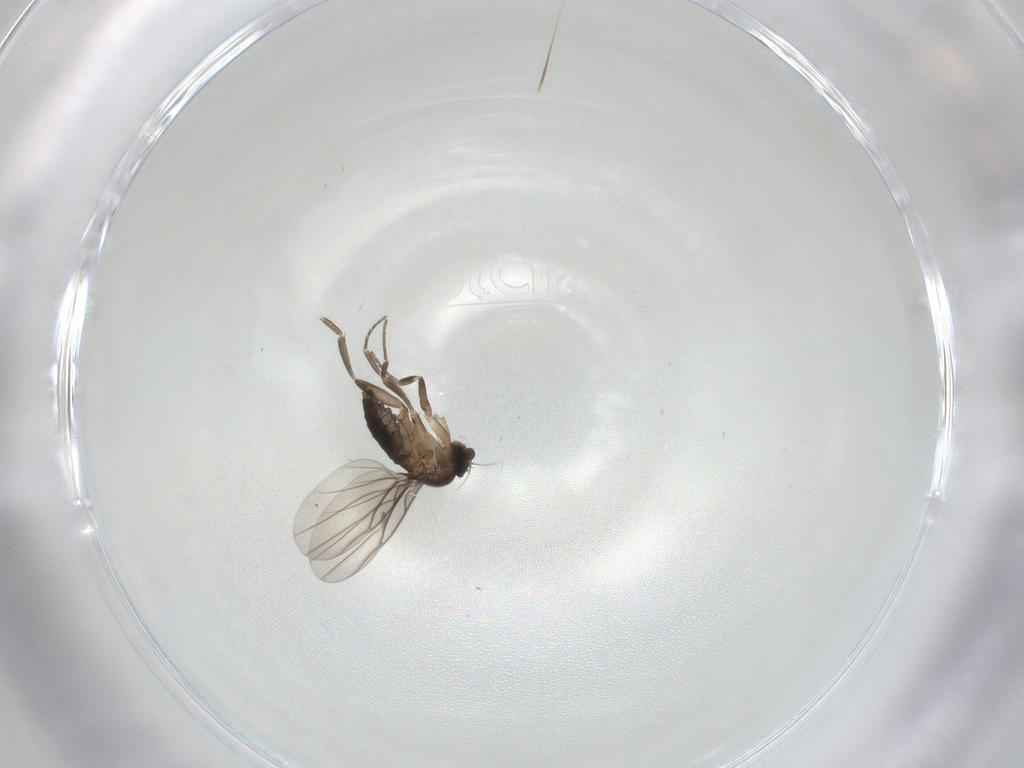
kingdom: Animalia
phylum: Arthropoda
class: Insecta
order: Diptera
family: Phoridae
